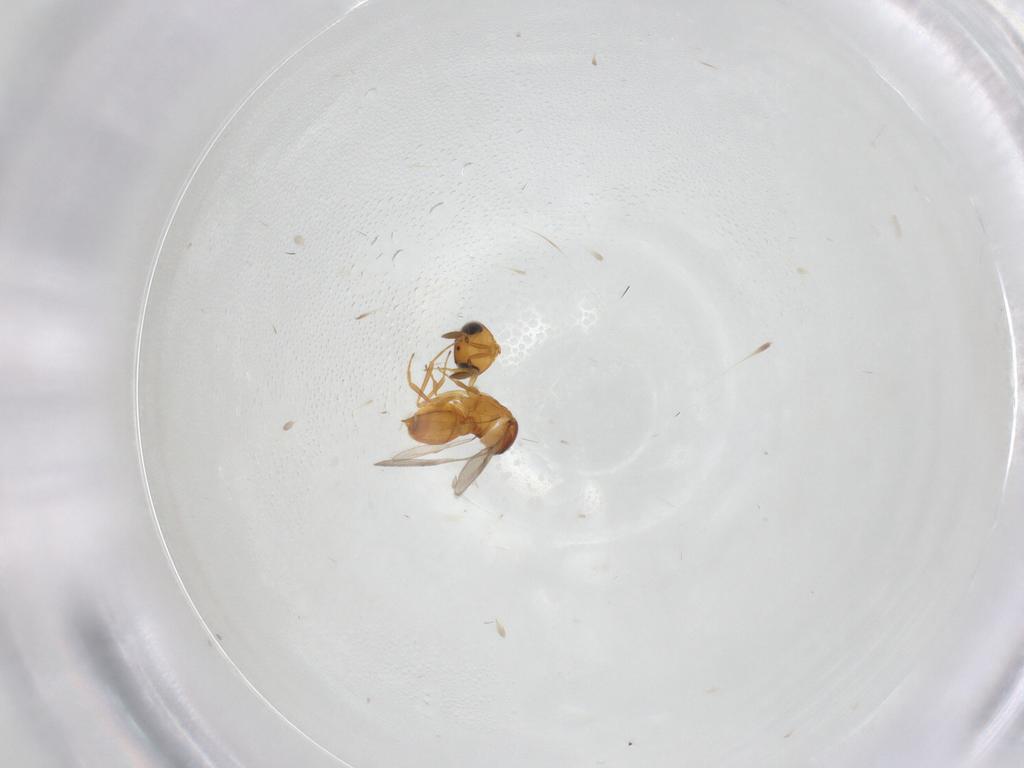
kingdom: Animalia
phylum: Arthropoda
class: Insecta
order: Hymenoptera
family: Scelionidae
